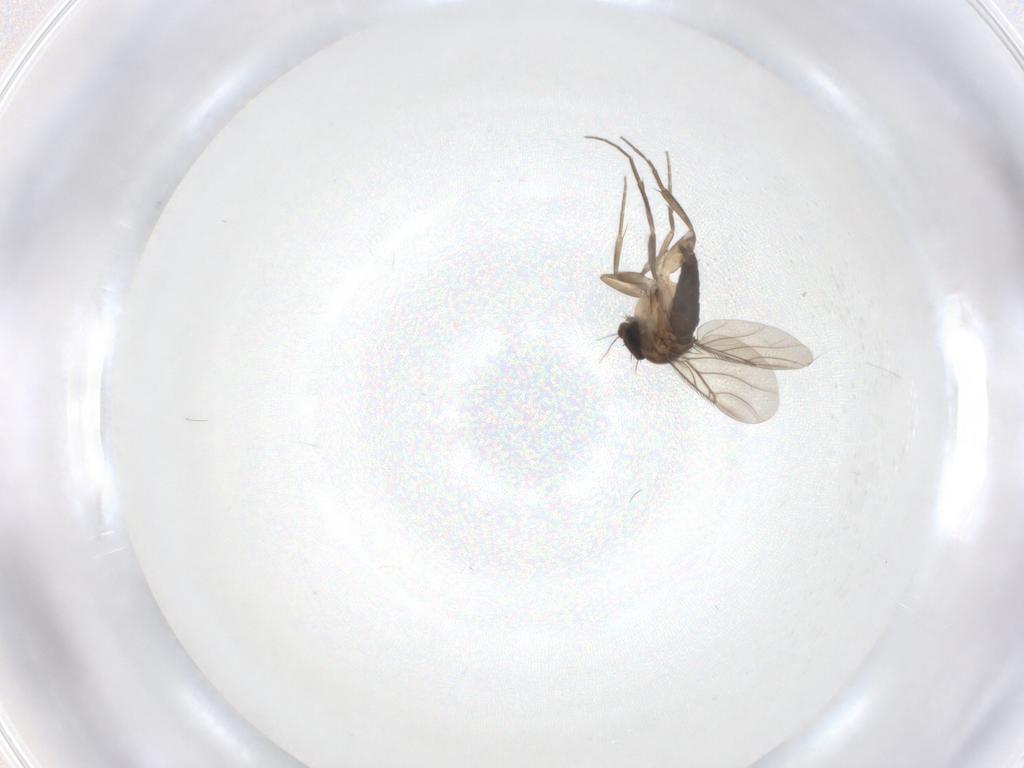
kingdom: Animalia
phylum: Arthropoda
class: Insecta
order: Diptera
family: Phoridae
